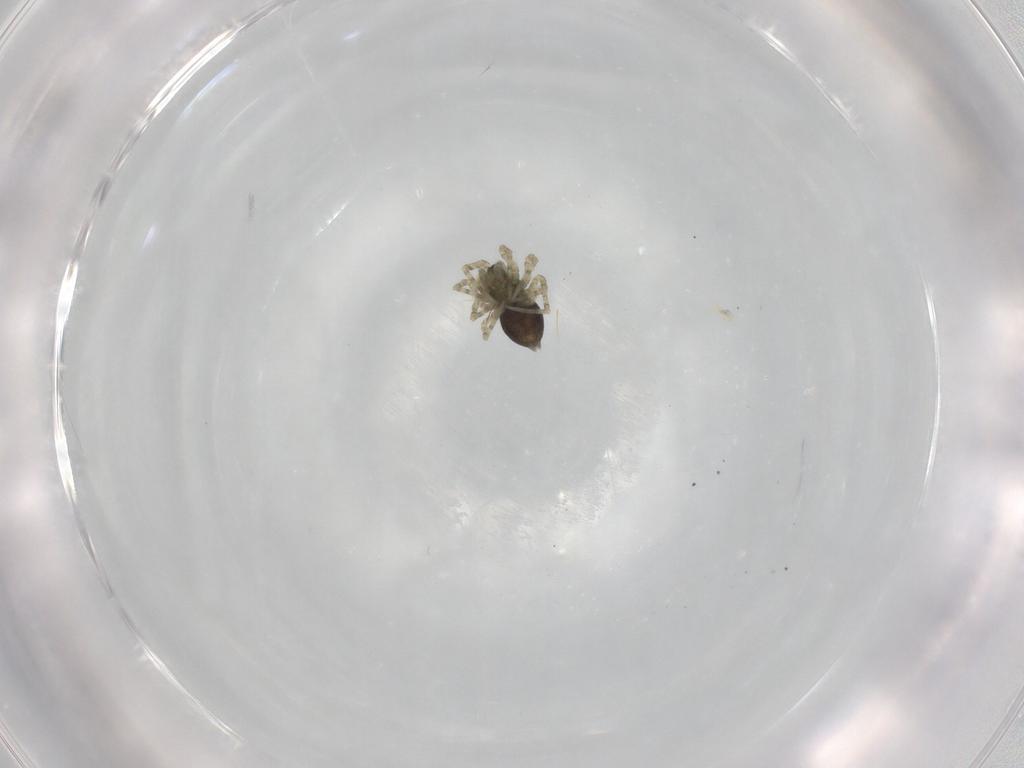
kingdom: Animalia
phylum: Arthropoda
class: Arachnida
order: Araneae
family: Linyphiidae
